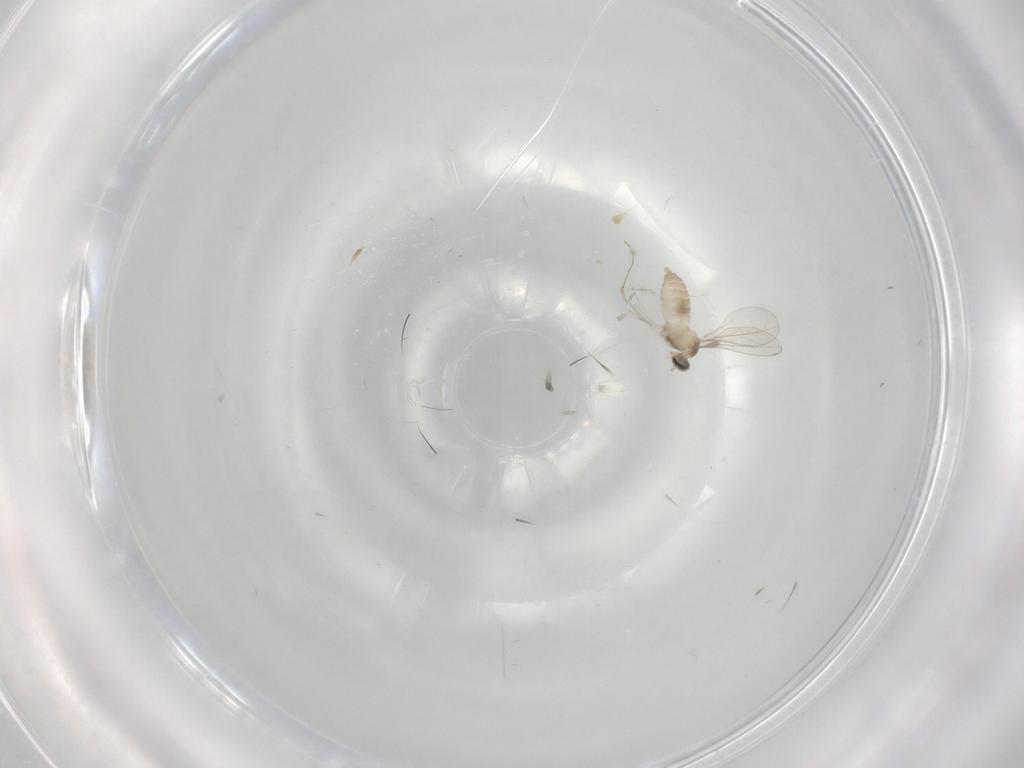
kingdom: Animalia
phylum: Arthropoda
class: Insecta
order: Diptera
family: Cecidomyiidae
